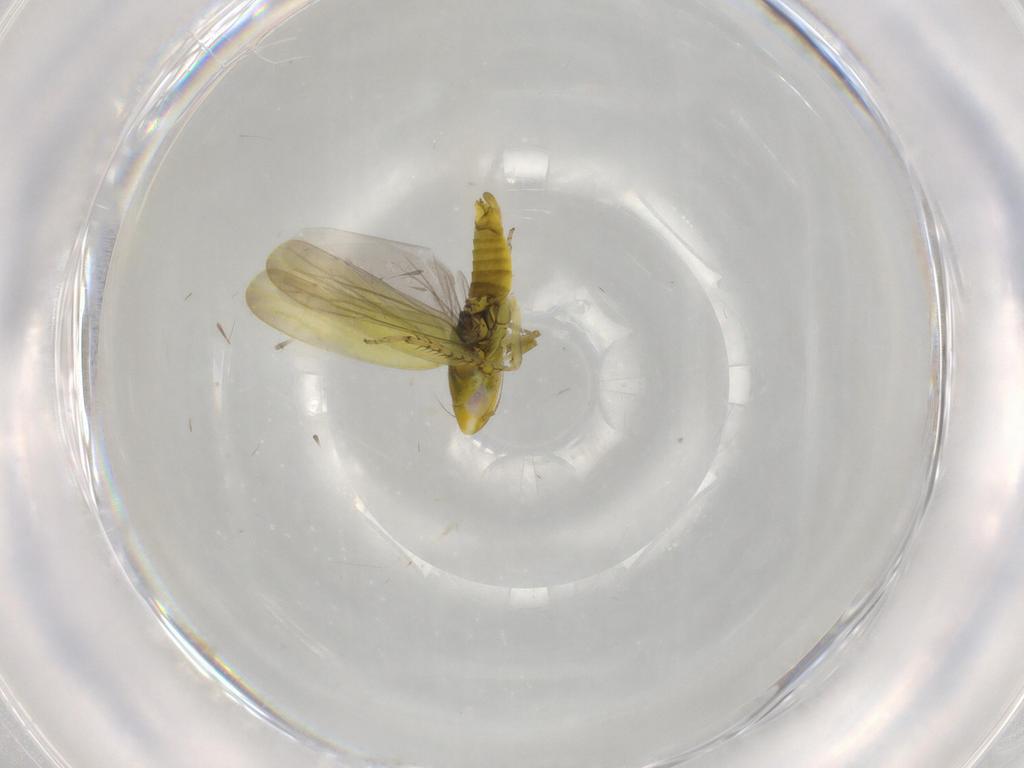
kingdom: Animalia
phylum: Arthropoda
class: Insecta
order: Hemiptera
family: Cicadellidae
